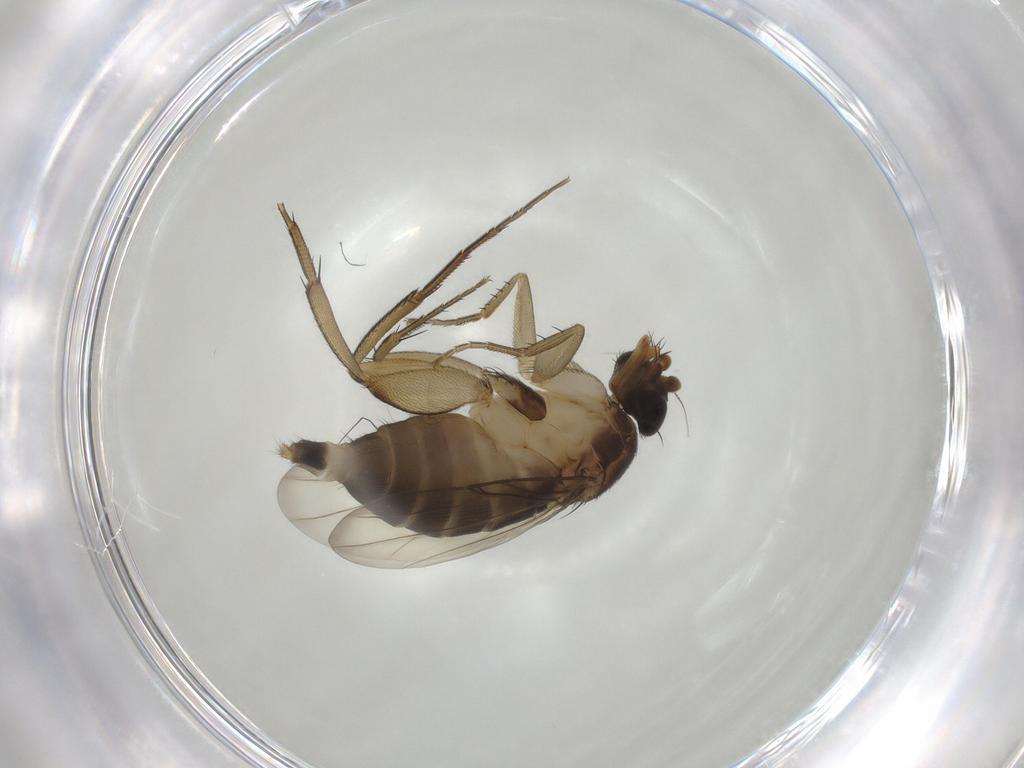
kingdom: Animalia
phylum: Arthropoda
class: Insecta
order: Diptera
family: Phoridae
